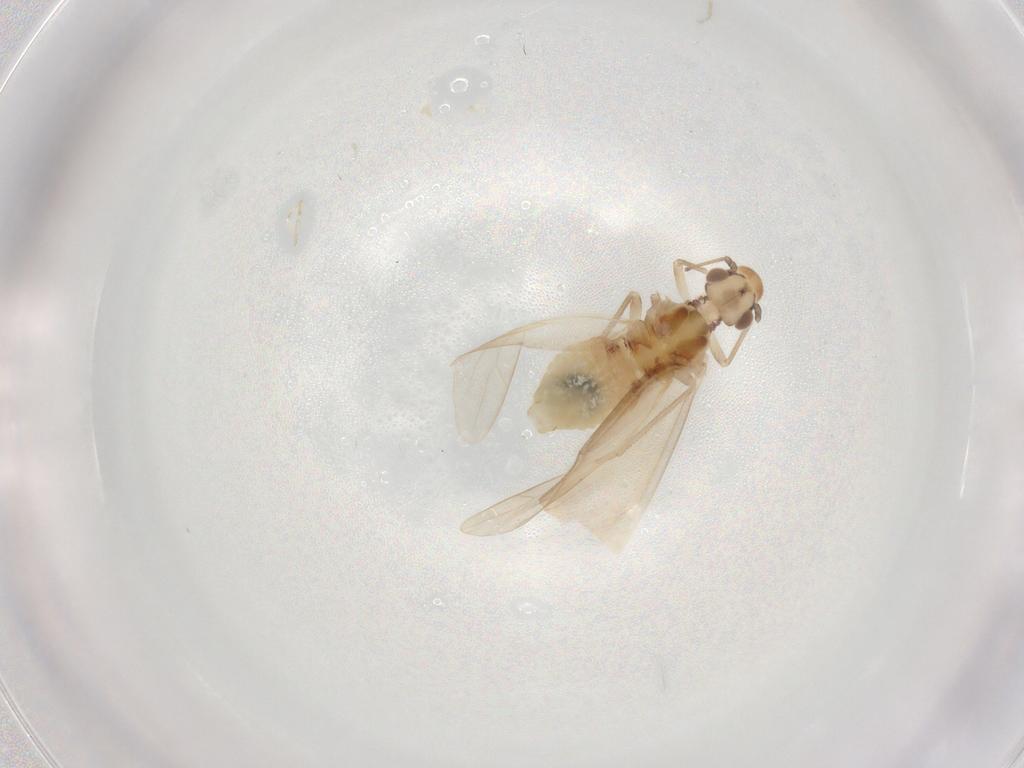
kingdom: Animalia
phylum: Arthropoda
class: Insecta
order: Psocodea
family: Caeciliusidae
